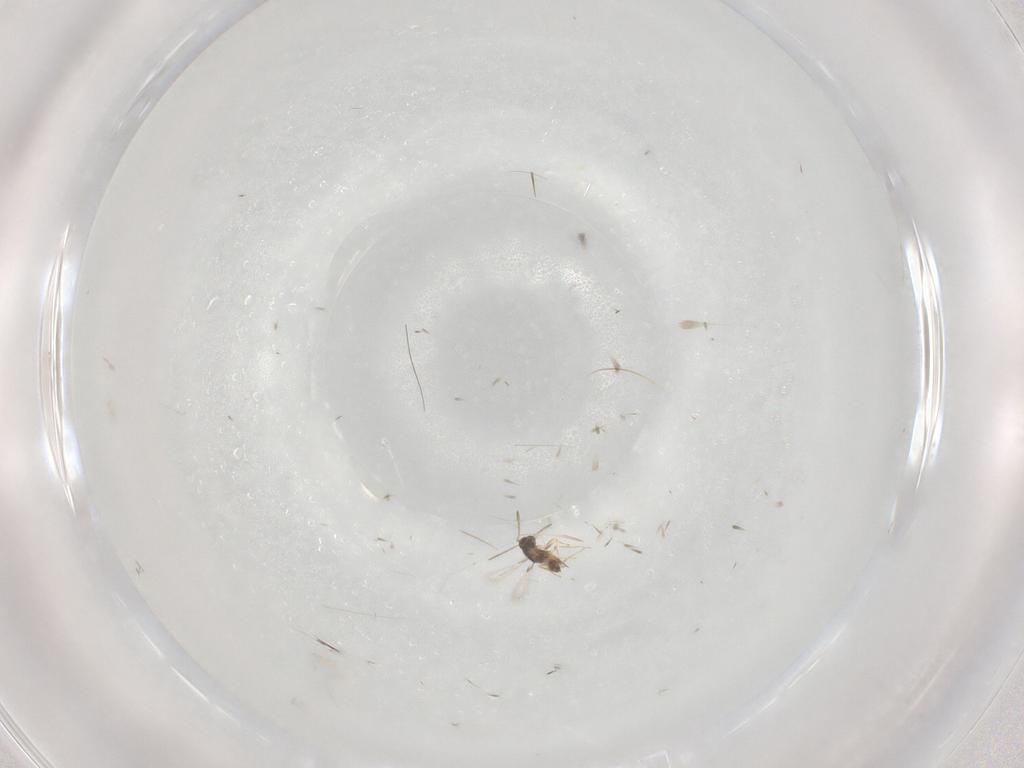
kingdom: Animalia
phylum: Arthropoda
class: Insecta
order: Hymenoptera
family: Mymaridae
